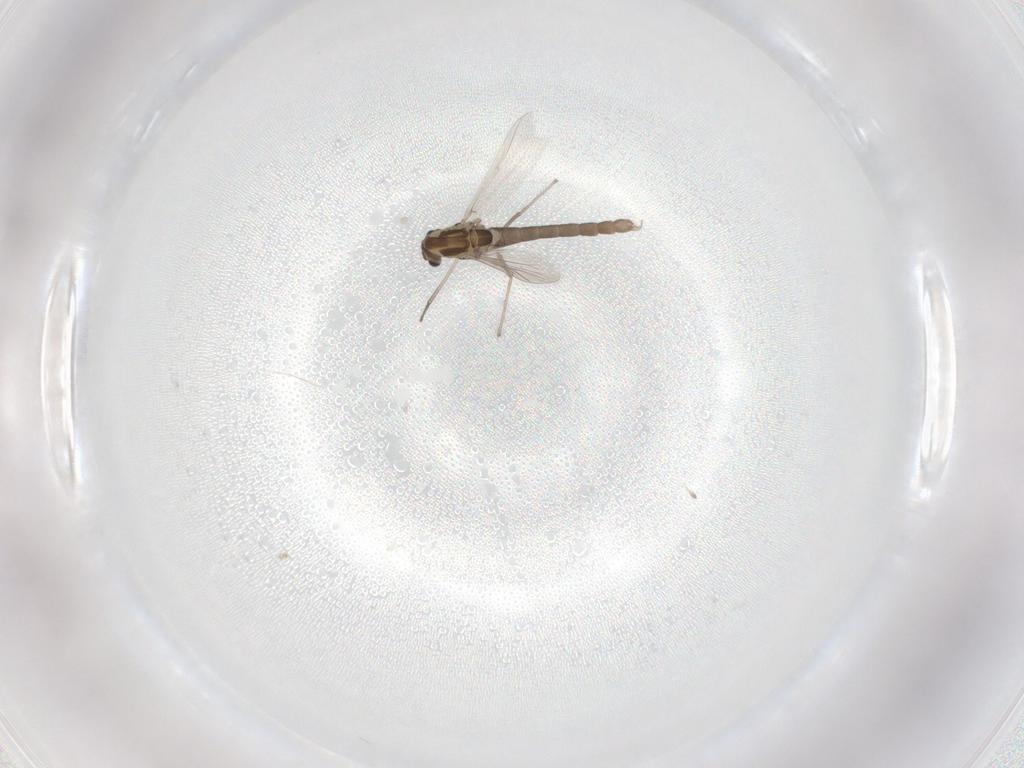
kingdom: Animalia
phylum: Arthropoda
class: Insecta
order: Diptera
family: Chironomidae
